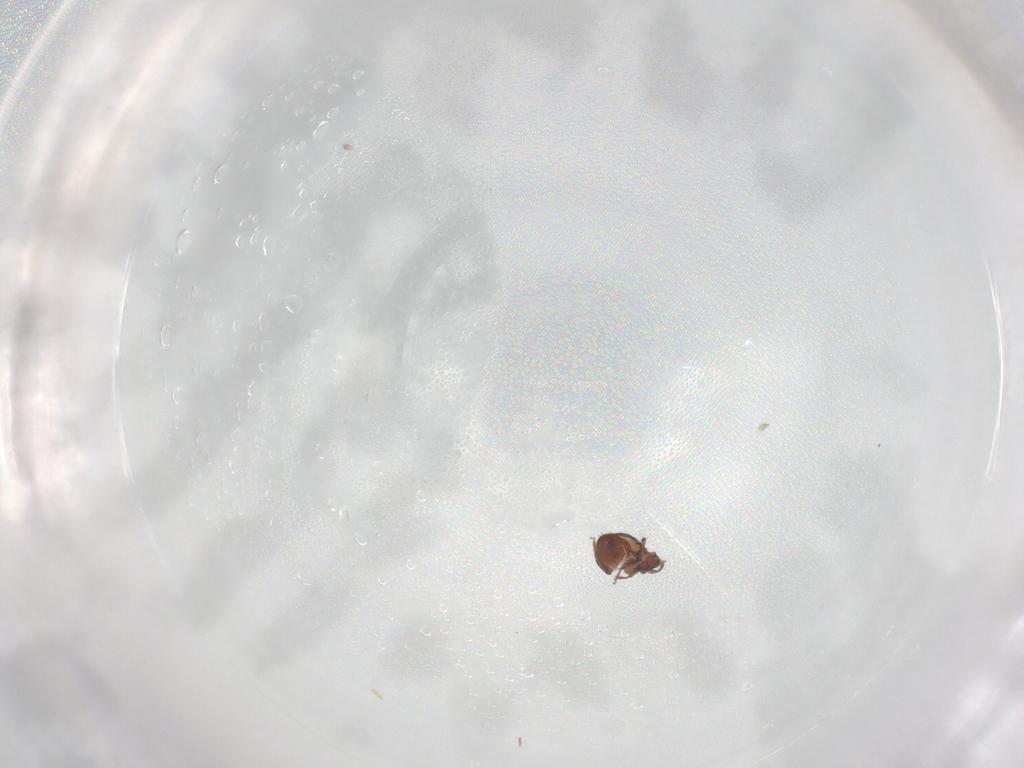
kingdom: Animalia
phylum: Arthropoda
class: Arachnida
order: Sarcoptiformes
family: Scheloribatidae
